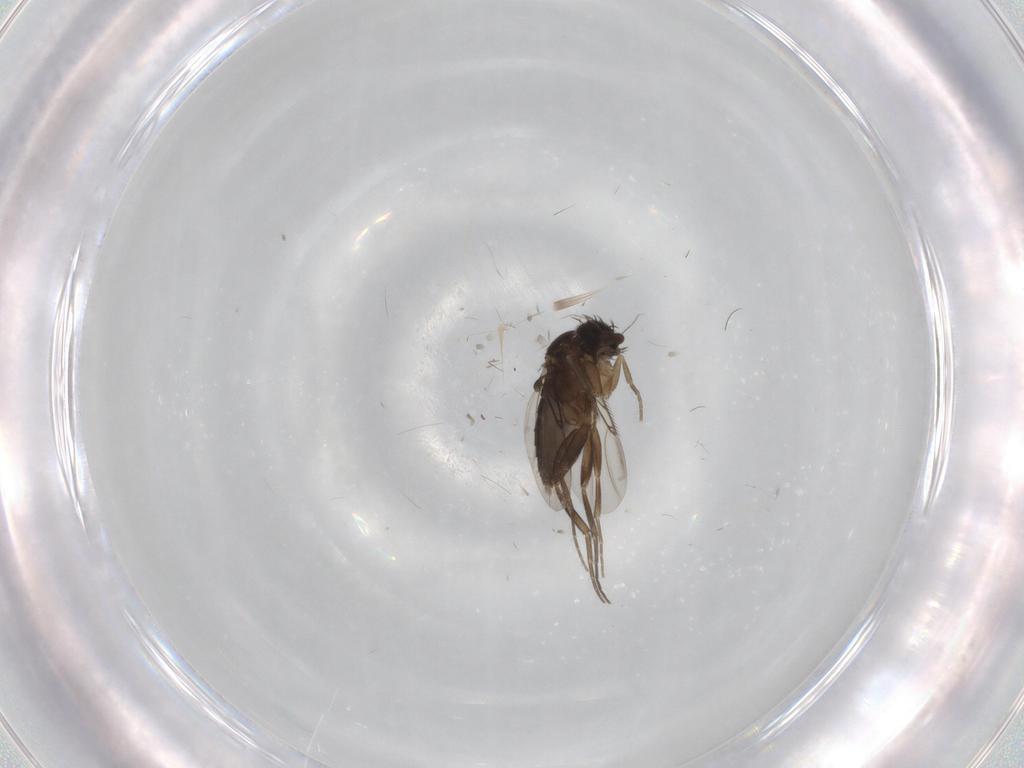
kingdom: Animalia
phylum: Arthropoda
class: Insecta
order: Diptera
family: Phoridae
